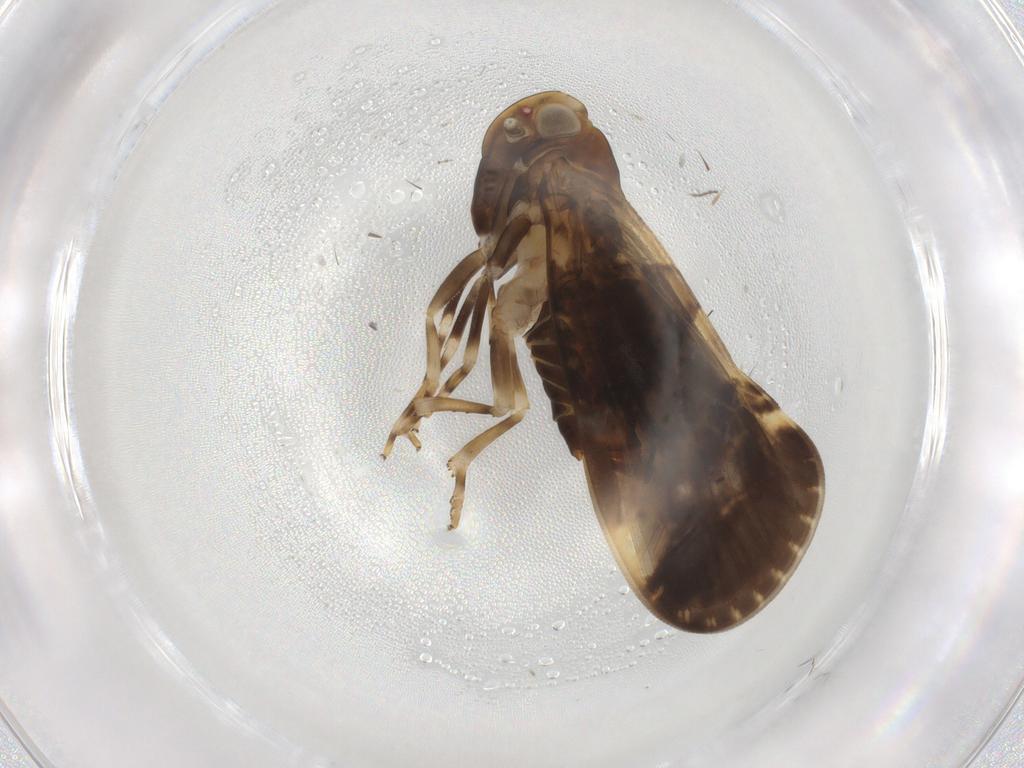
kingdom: Animalia
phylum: Arthropoda
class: Insecta
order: Hemiptera
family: Cixiidae
